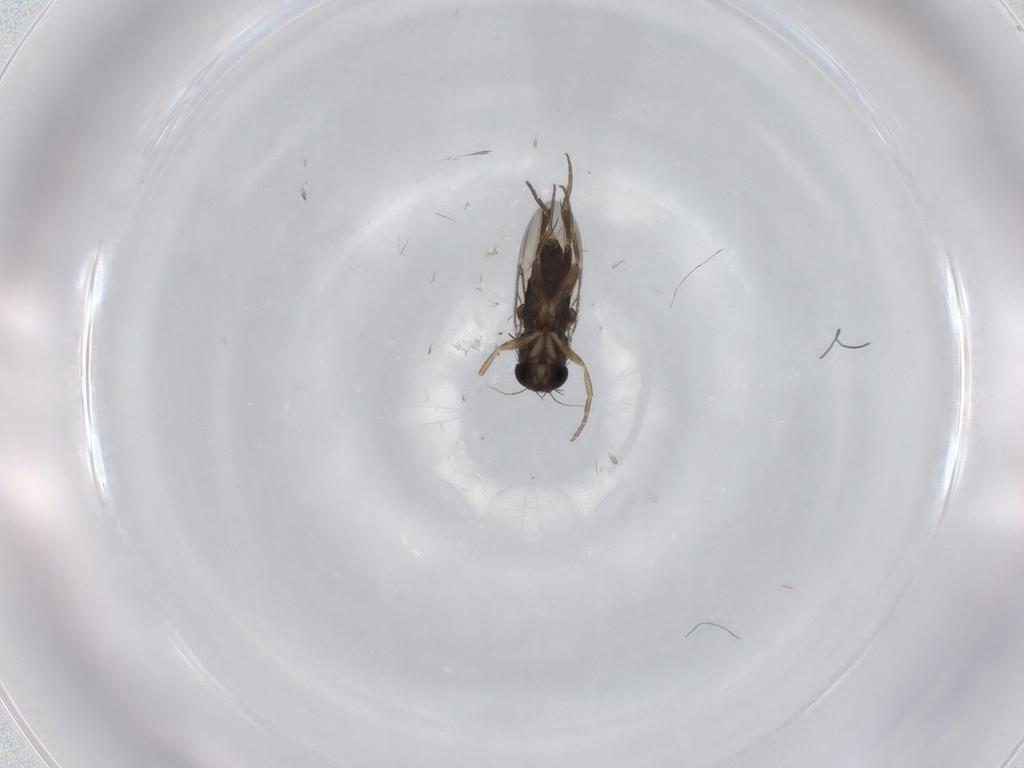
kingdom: Animalia
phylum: Arthropoda
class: Insecta
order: Diptera
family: Phoridae
